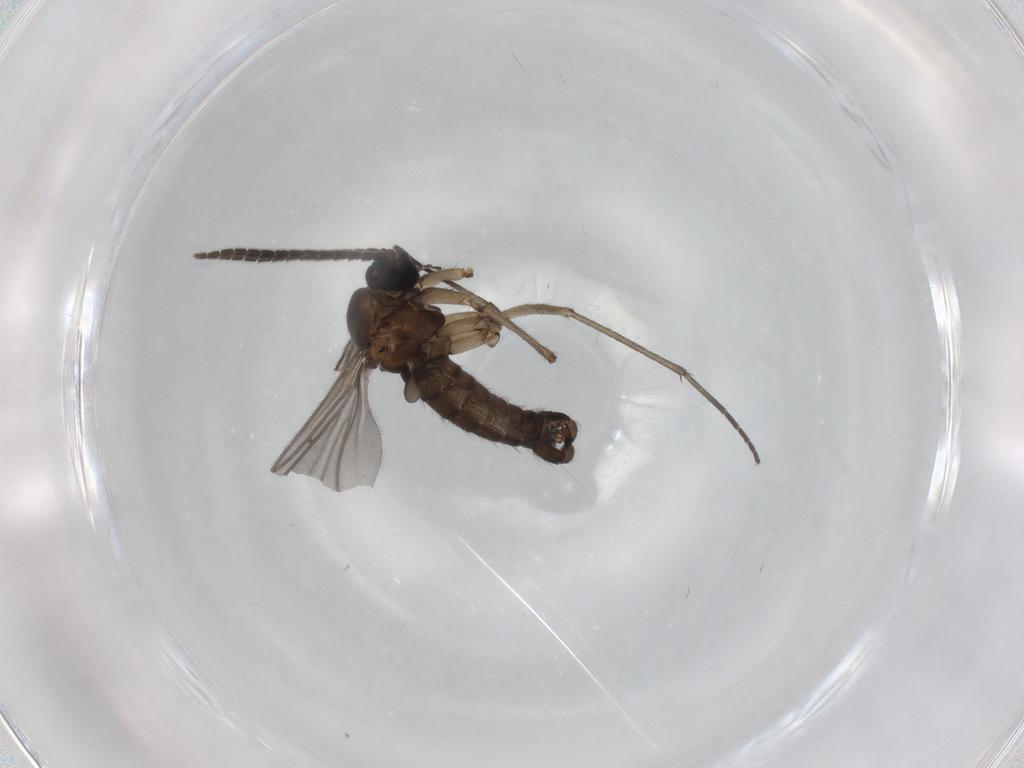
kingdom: Animalia
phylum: Arthropoda
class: Insecta
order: Diptera
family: Sciaridae
